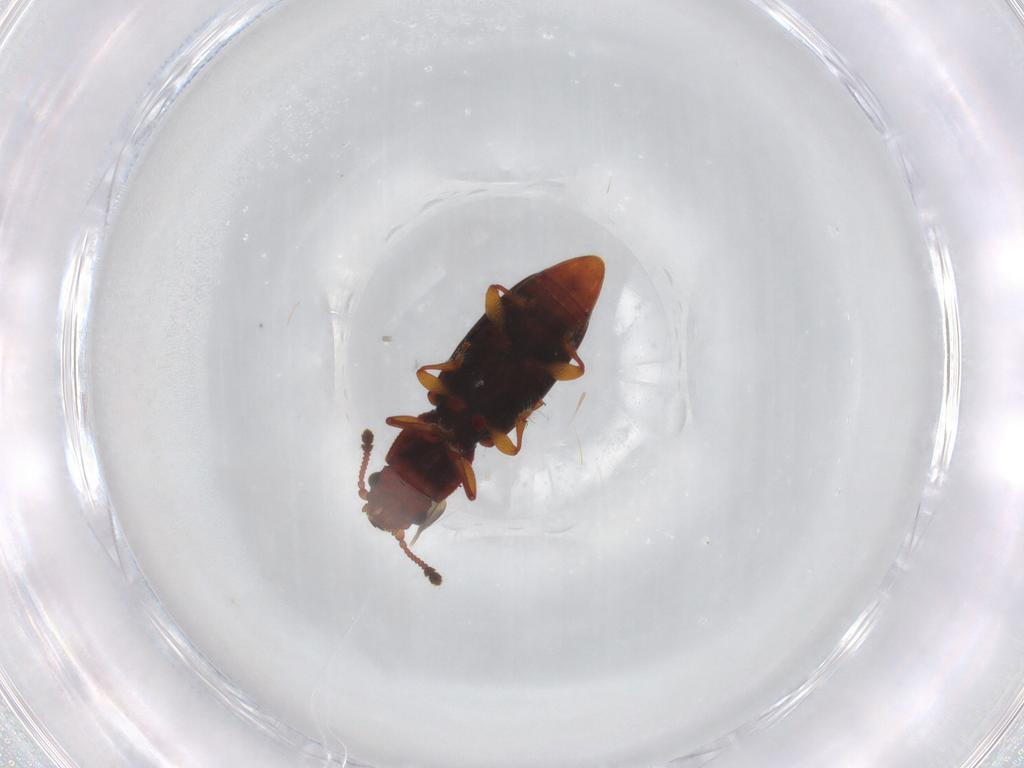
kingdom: Animalia
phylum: Arthropoda
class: Insecta
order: Coleoptera
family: Monotomidae
